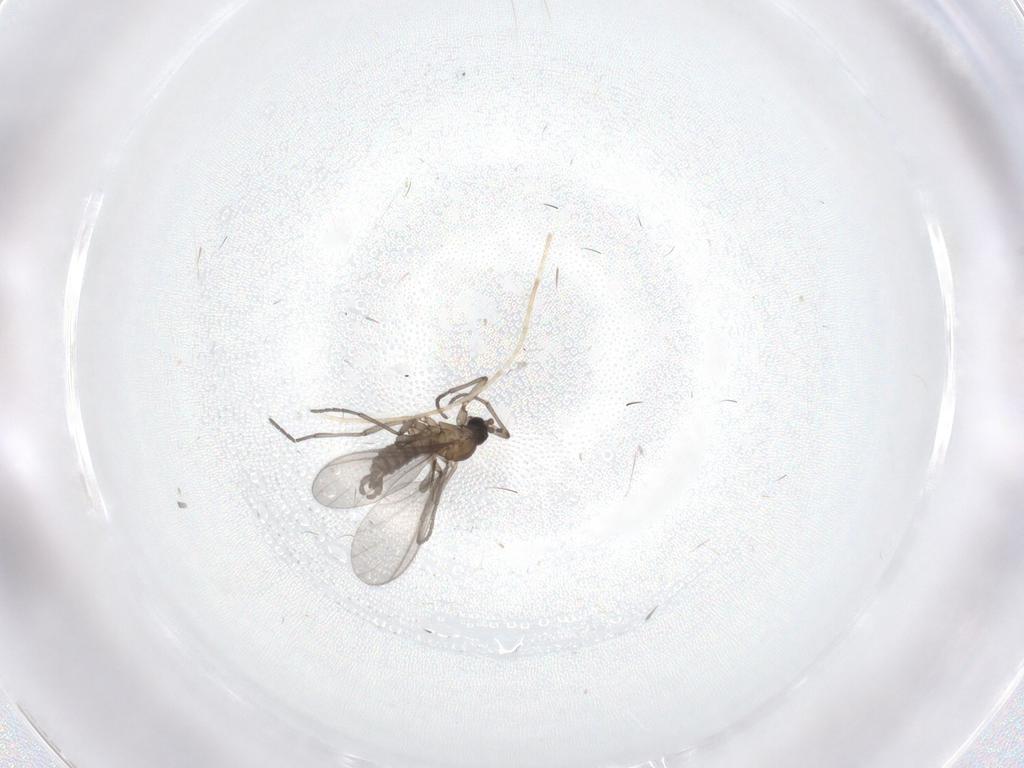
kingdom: Animalia
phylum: Arthropoda
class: Insecta
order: Diptera
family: Sciaridae
